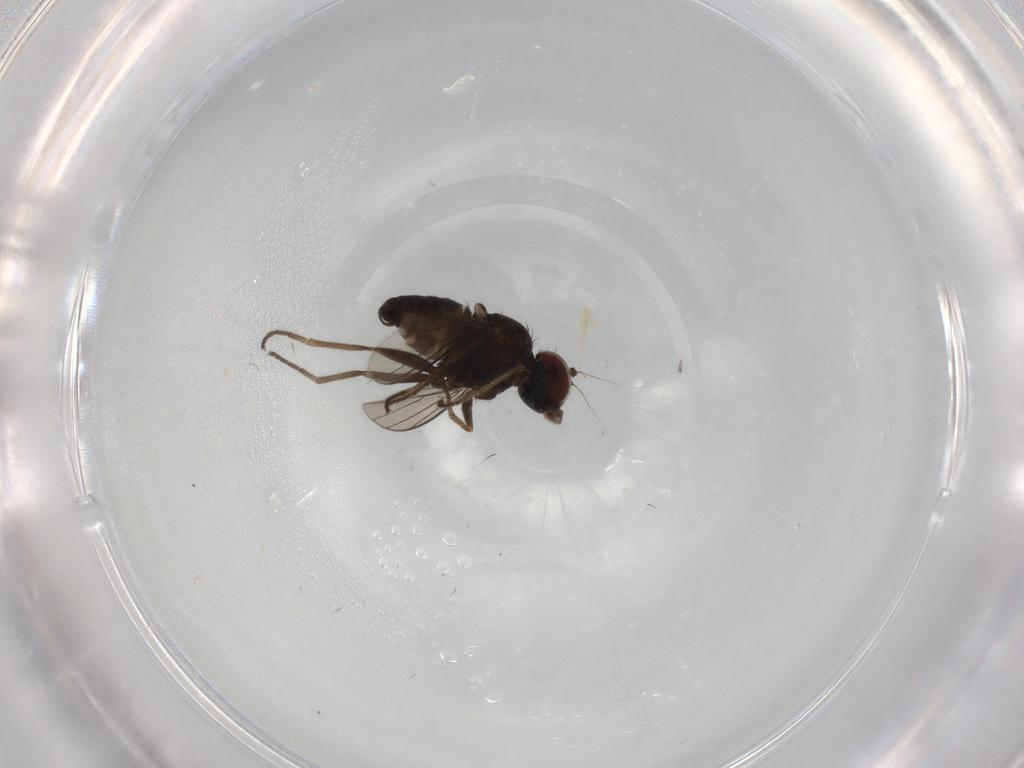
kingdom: Animalia
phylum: Arthropoda
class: Insecta
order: Diptera
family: Dolichopodidae
